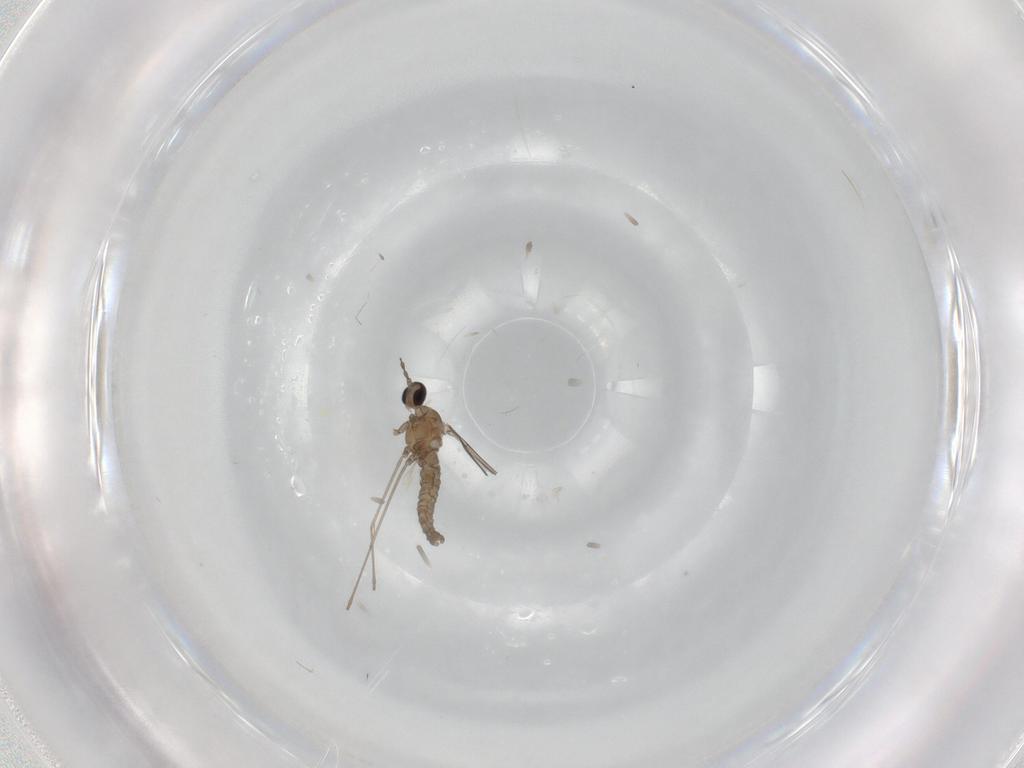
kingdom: Animalia
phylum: Arthropoda
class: Insecta
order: Diptera
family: Cecidomyiidae
